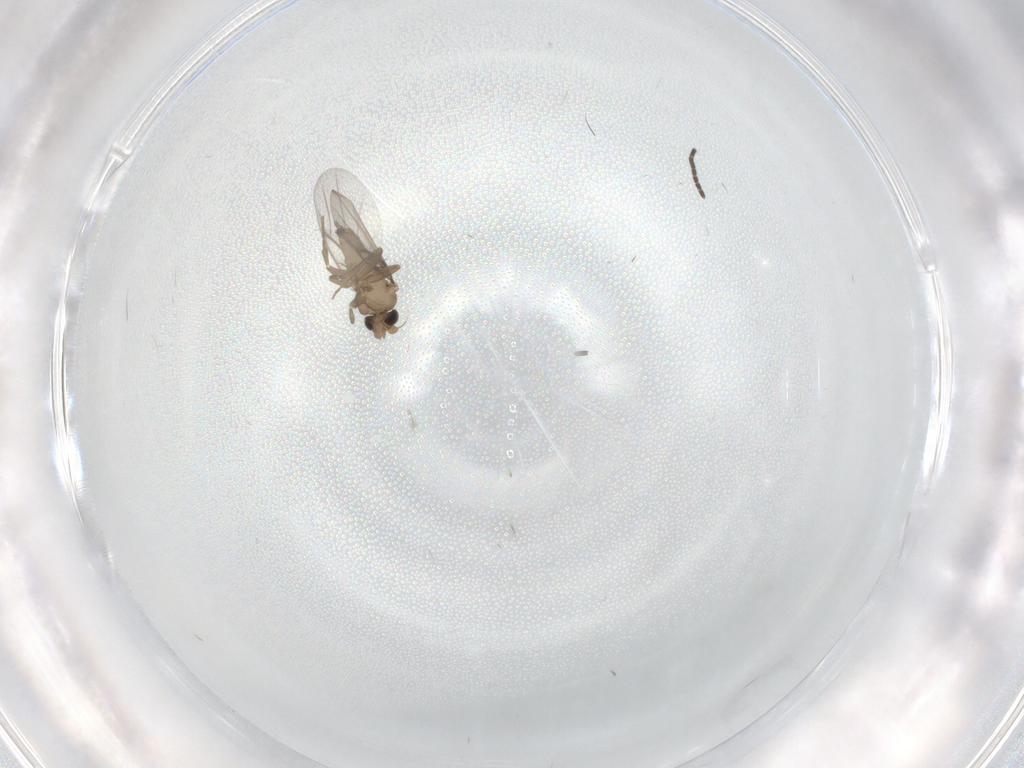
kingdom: Animalia
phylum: Arthropoda
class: Insecta
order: Diptera
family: Sciaridae
